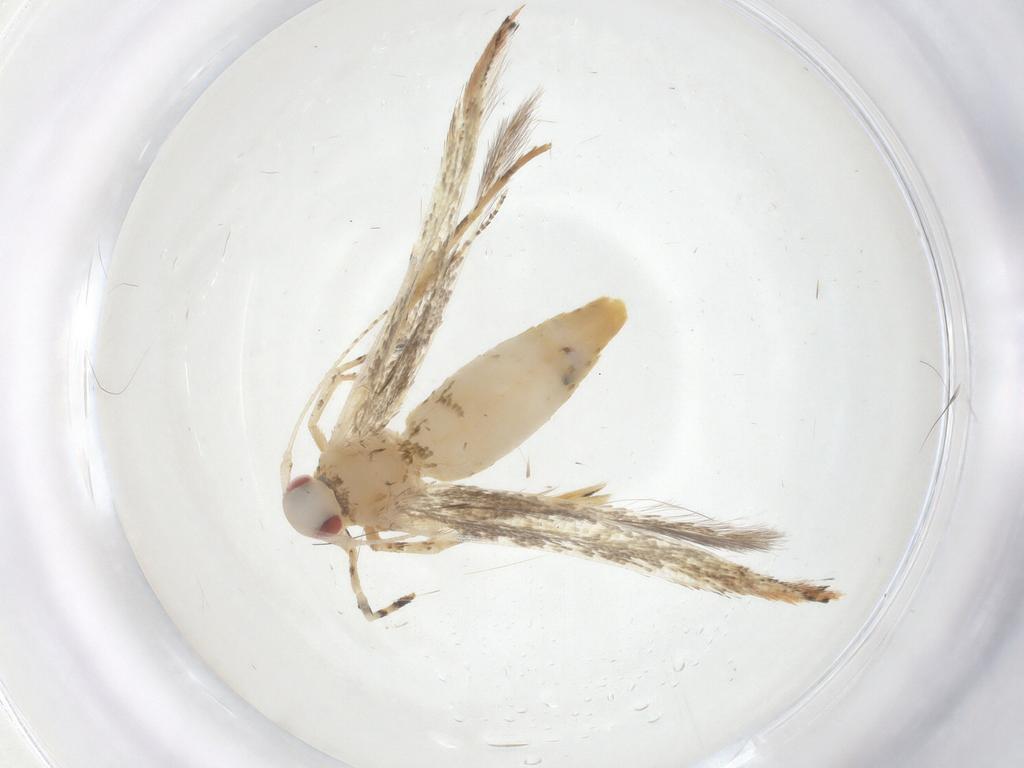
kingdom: Animalia
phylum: Arthropoda
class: Insecta
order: Lepidoptera
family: Cosmopterigidae
